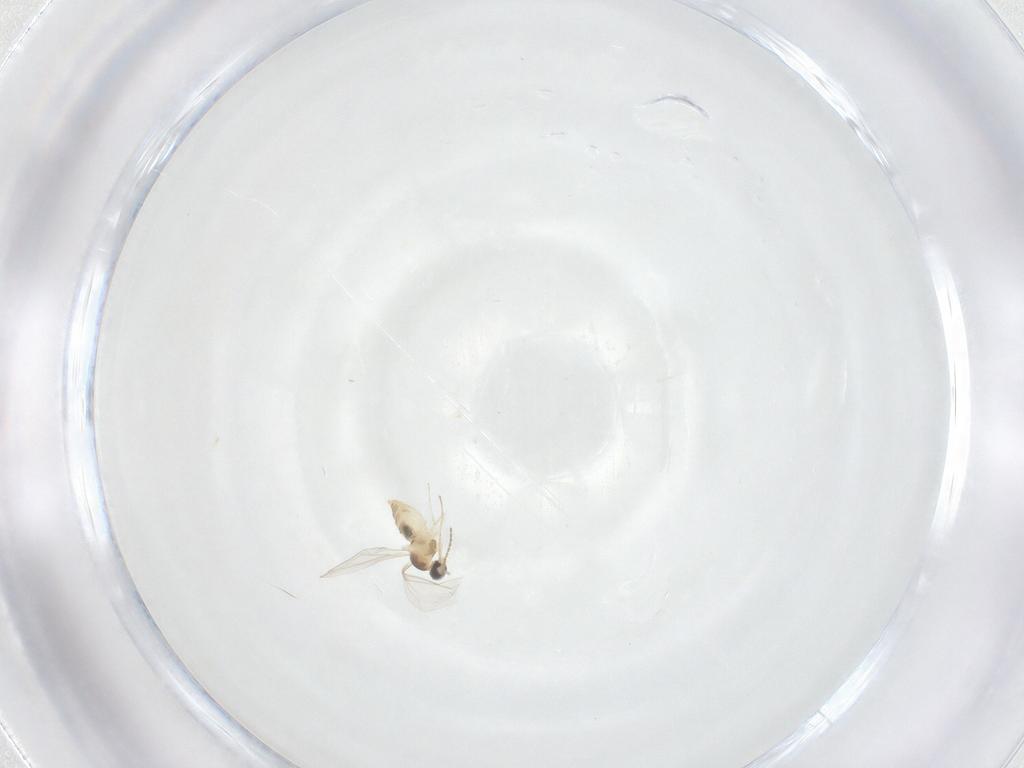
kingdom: Animalia
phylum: Arthropoda
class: Insecta
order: Diptera
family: Cecidomyiidae
